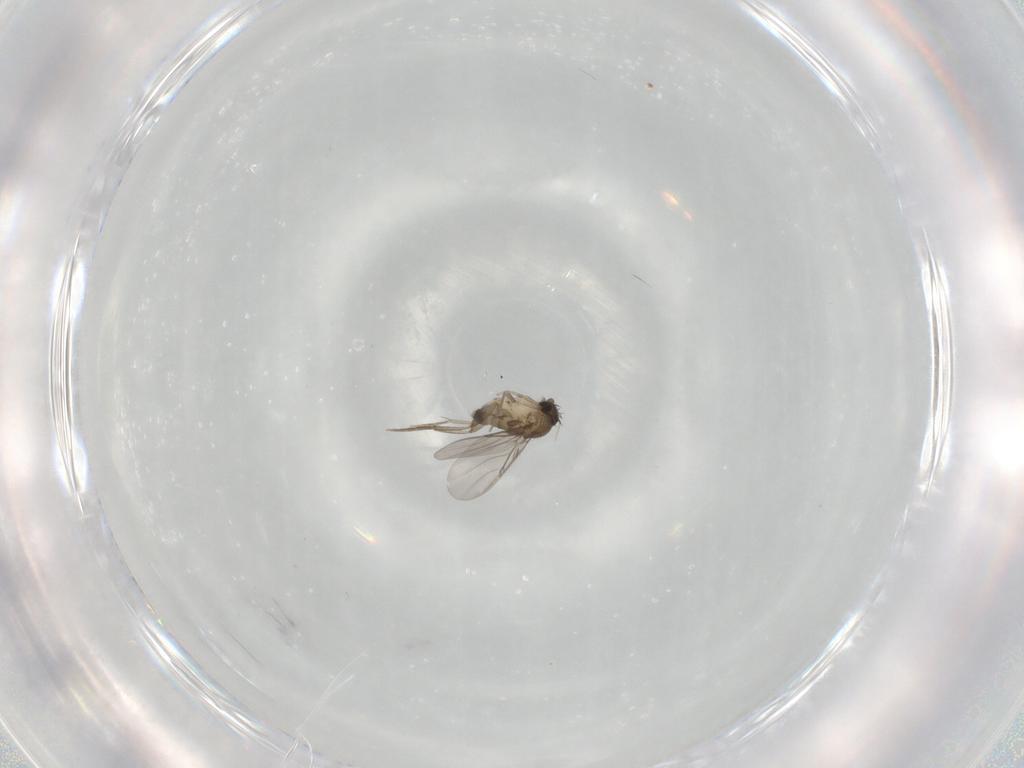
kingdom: Animalia
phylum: Arthropoda
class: Insecta
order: Diptera
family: Phoridae
